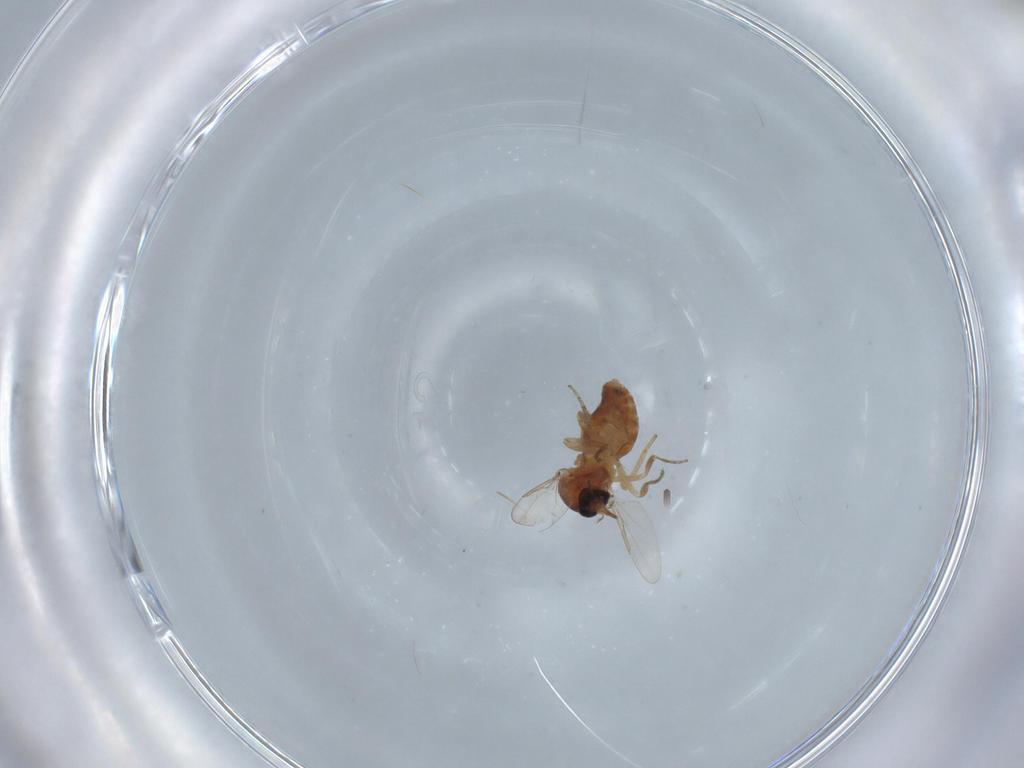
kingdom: Animalia
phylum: Arthropoda
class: Insecta
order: Diptera
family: Ceratopogonidae
